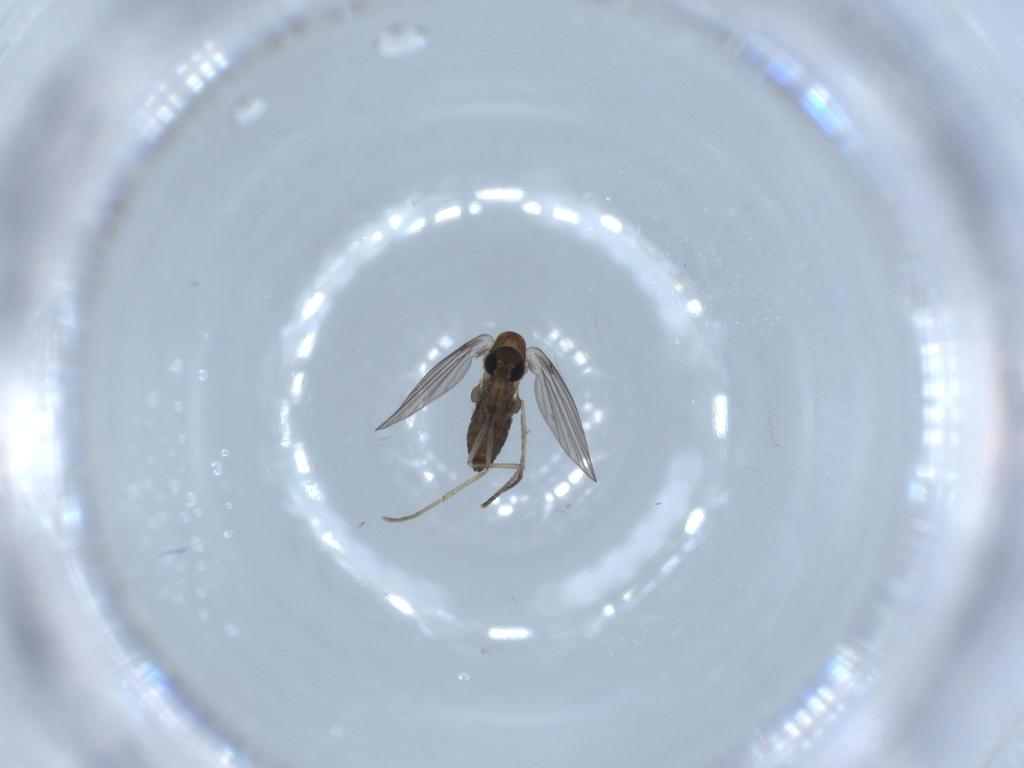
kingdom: Animalia
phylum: Arthropoda
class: Insecta
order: Diptera
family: Psychodidae
